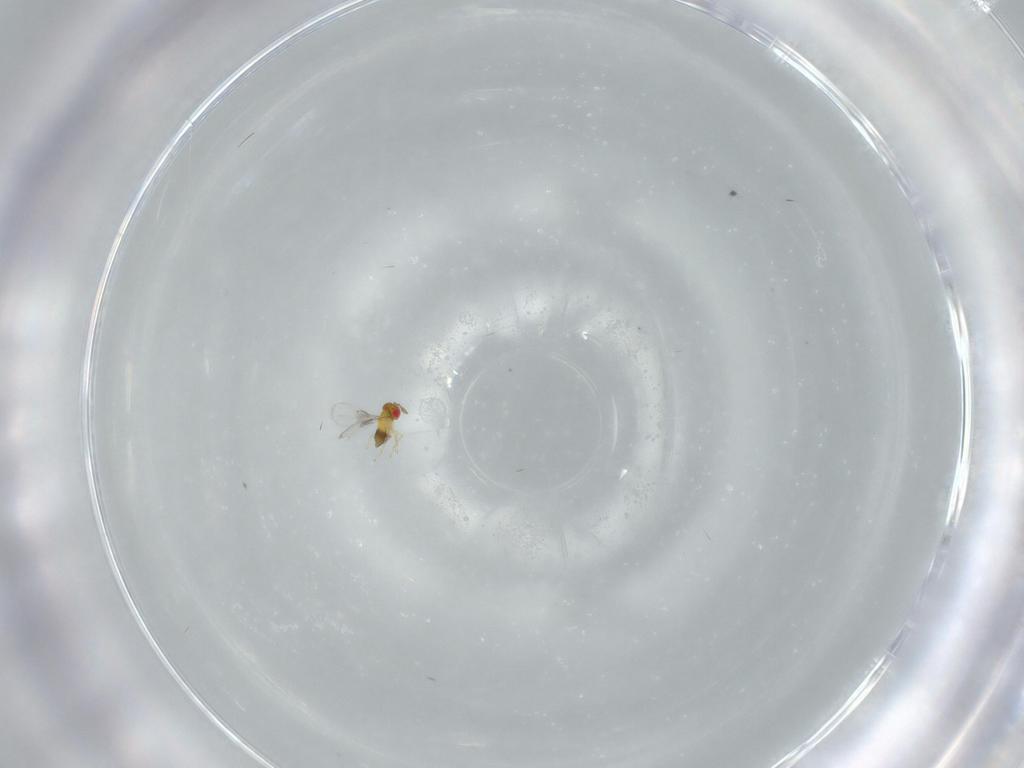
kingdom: Animalia
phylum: Arthropoda
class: Insecta
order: Hymenoptera
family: Trichogrammatidae
